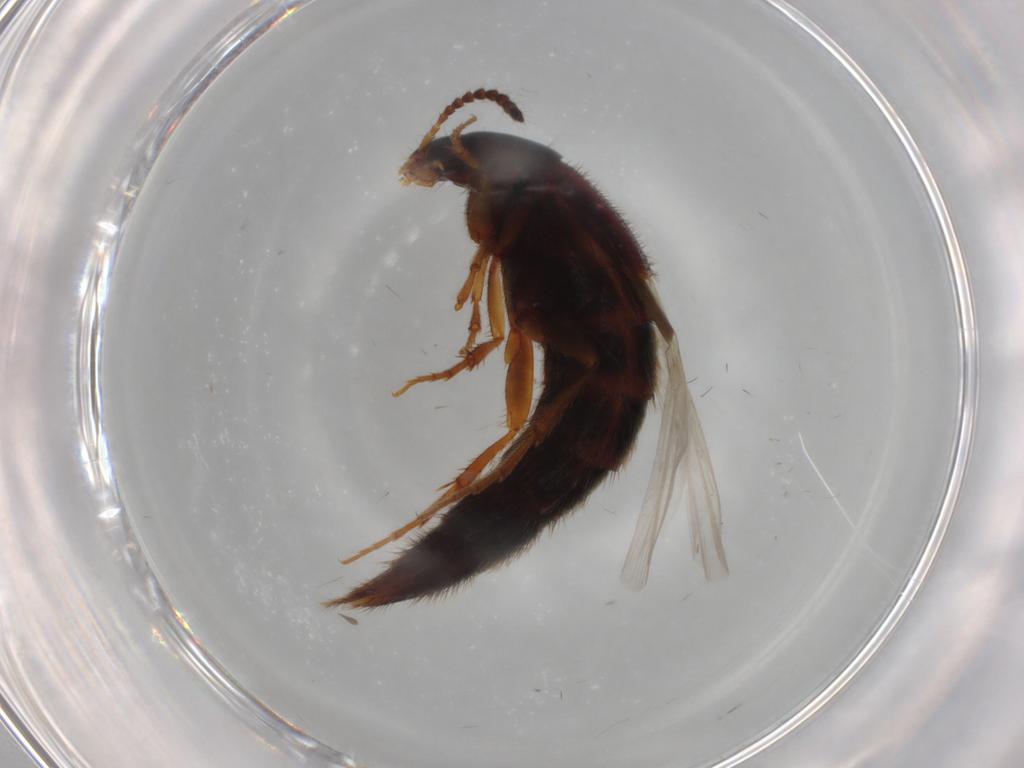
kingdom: Animalia
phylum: Arthropoda
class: Insecta
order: Coleoptera
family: Staphylinidae
